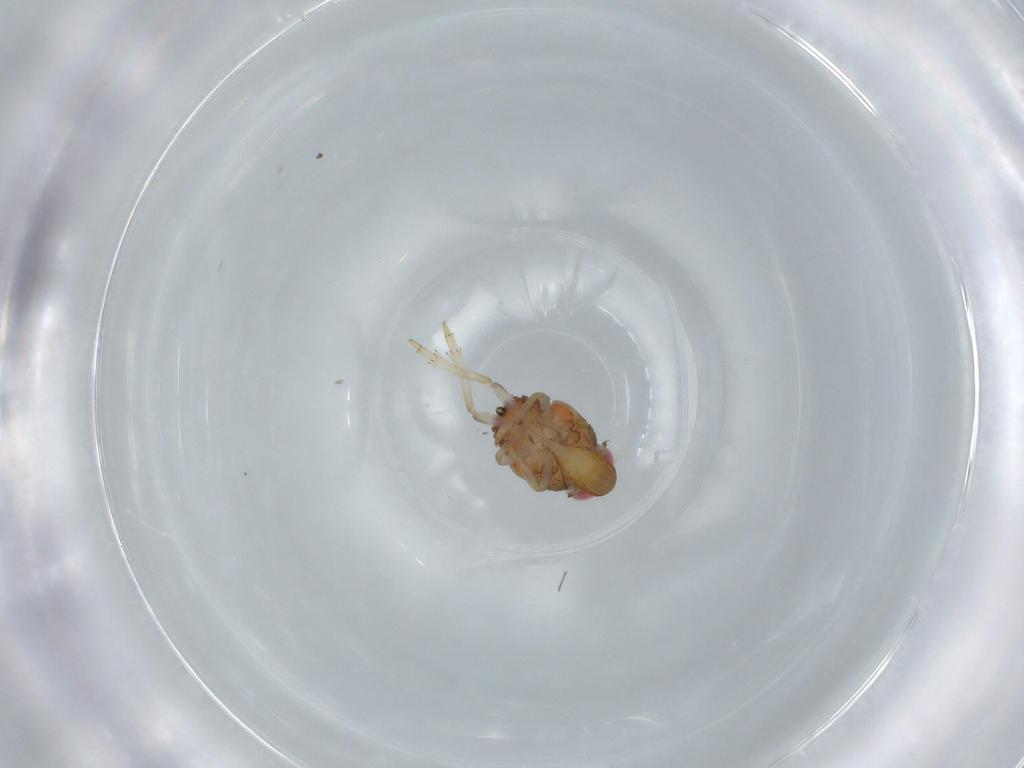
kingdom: Animalia
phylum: Arthropoda
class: Insecta
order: Hemiptera
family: Issidae
